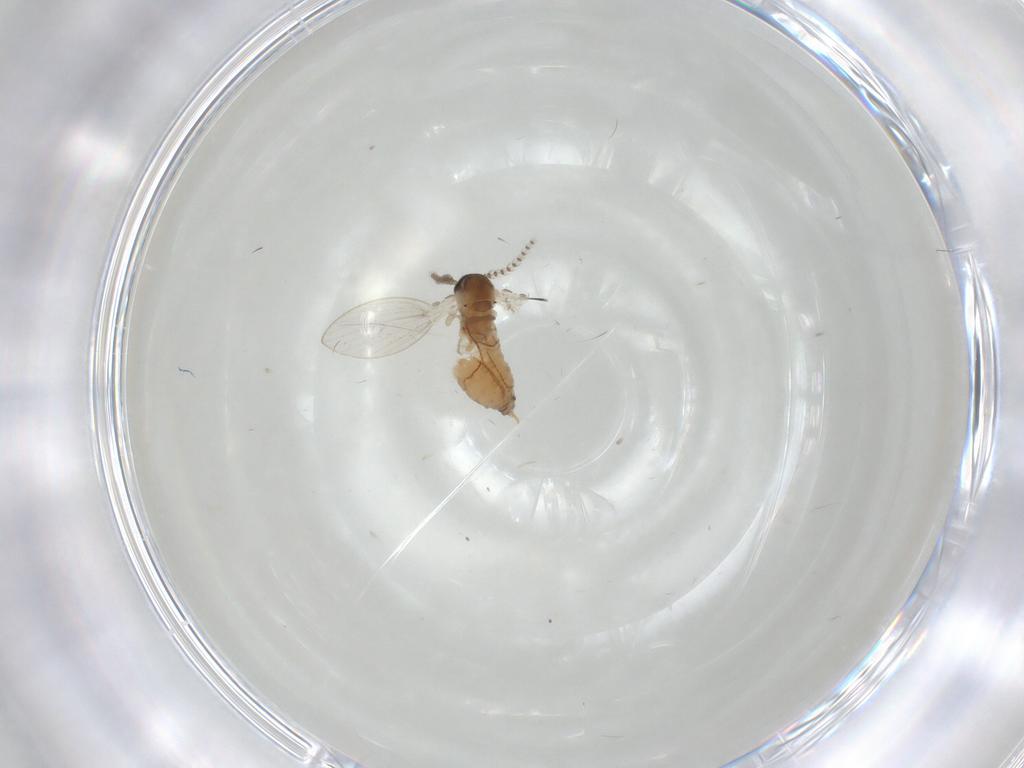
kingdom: Animalia
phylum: Arthropoda
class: Insecta
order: Diptera
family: Psychodidae
